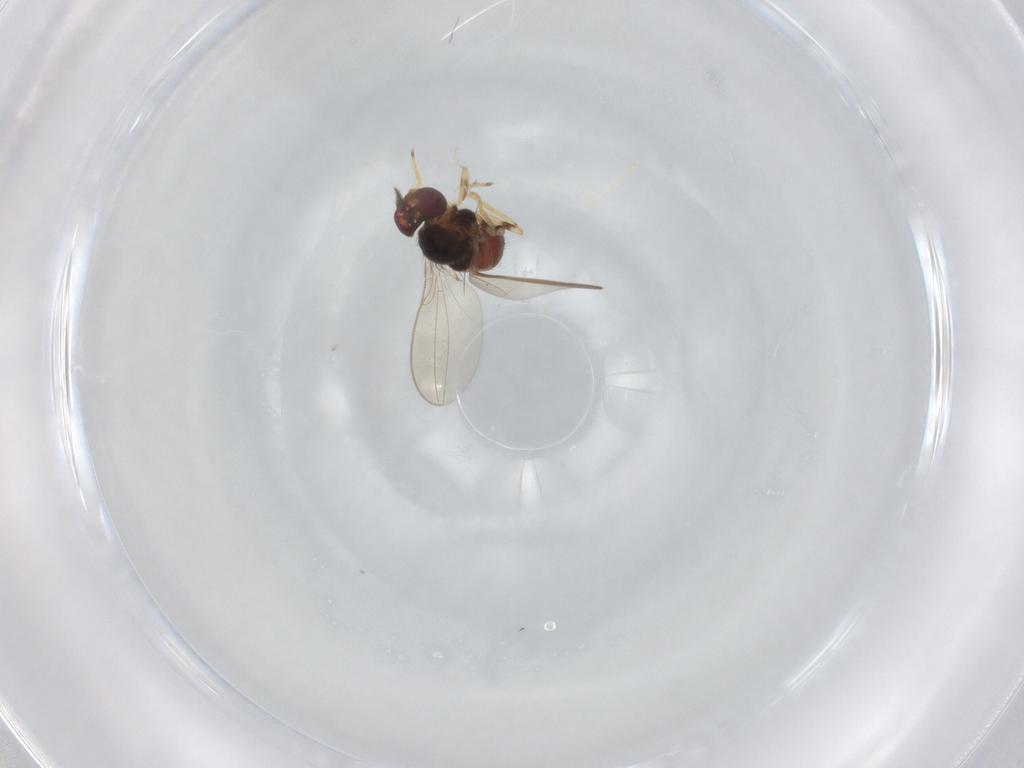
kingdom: Animalia
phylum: Arthropoda
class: Insecta
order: Diptera
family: Asteiidae
